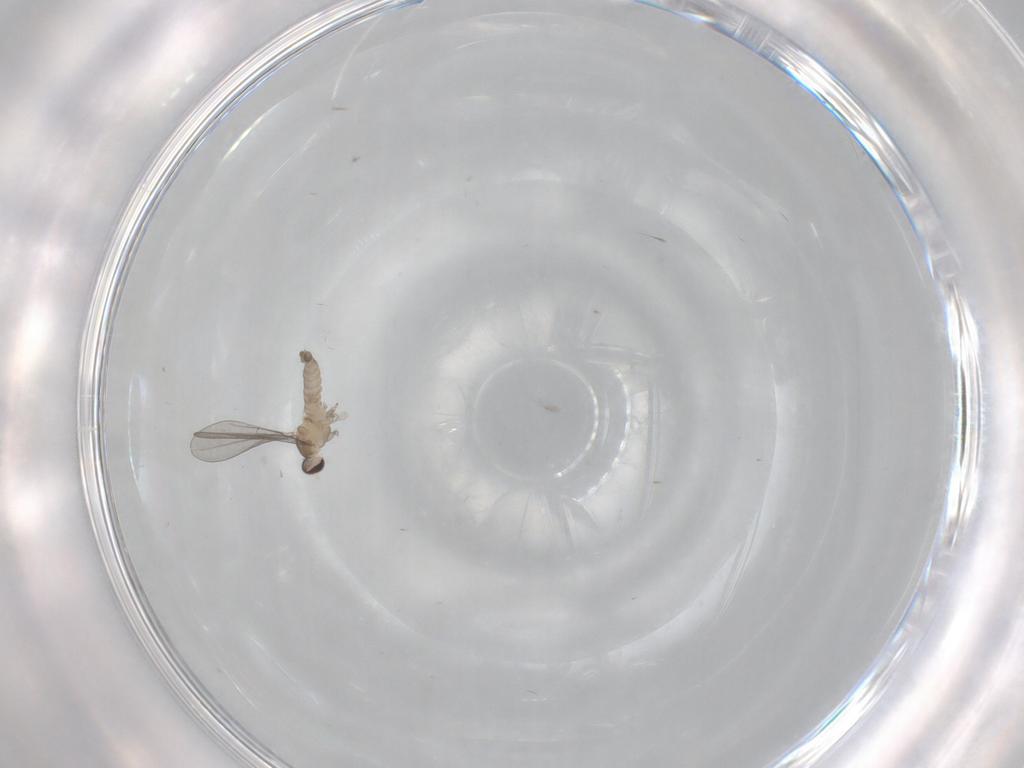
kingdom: Animalia
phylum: Arthropoda
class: Insecta
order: Diptera
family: Cecidomyiidae
